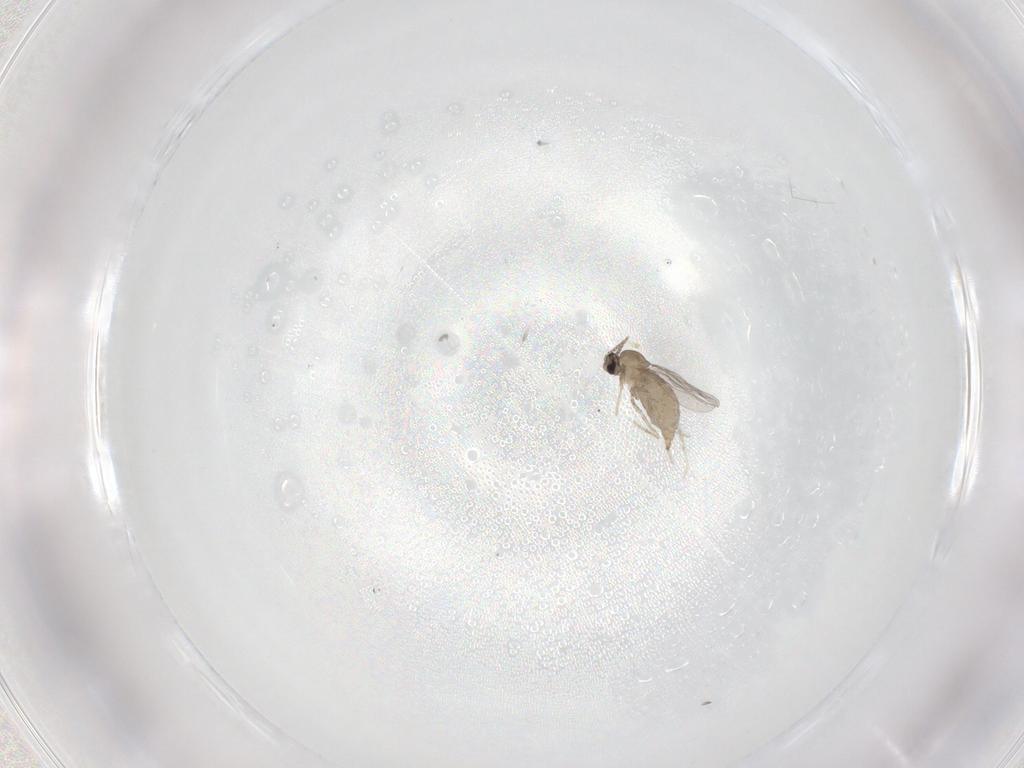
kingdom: Animalia
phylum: Arthropoda
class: Insecta
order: Diptera
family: Cecidomyiidae
